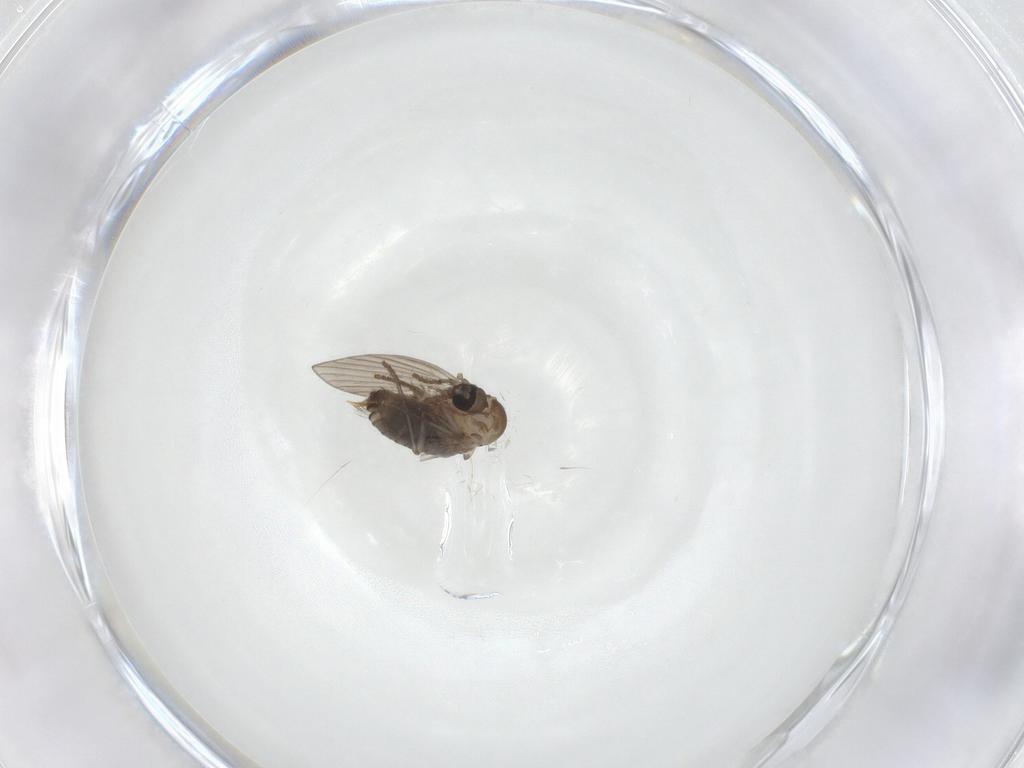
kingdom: Animalia
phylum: Arthropoda
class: Insecta
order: Diptera
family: Psychodidae
